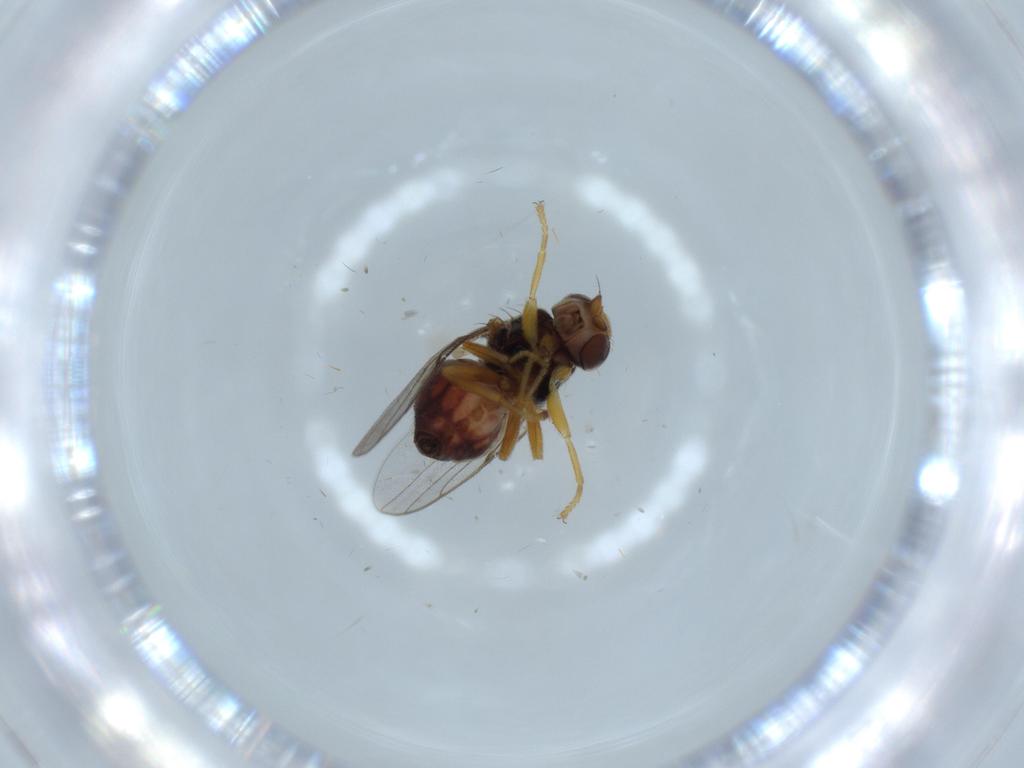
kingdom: Animalia
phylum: Arthropoda
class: Insecta
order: Diptera
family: Chloropidae
